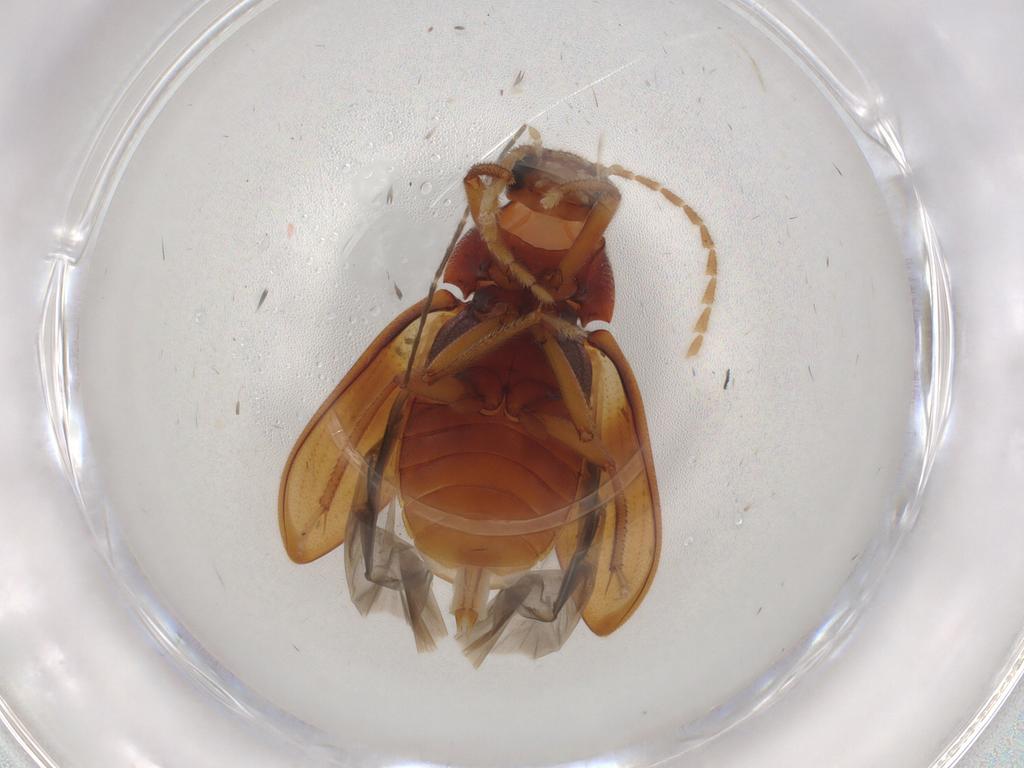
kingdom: Animalia
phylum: Arthropoda
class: Insecta
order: Coleoptera
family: Ptilodactylidae
